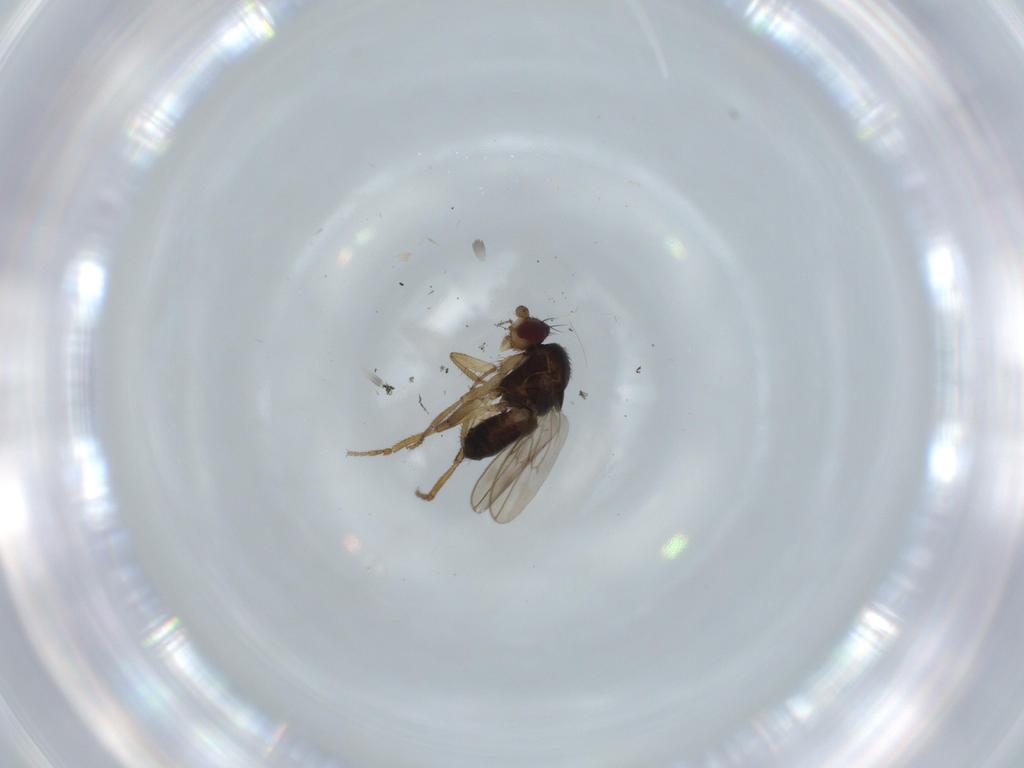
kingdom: Animalia
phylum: Arthropoda
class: Insecta
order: Diptera
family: Sphaeroceridae
